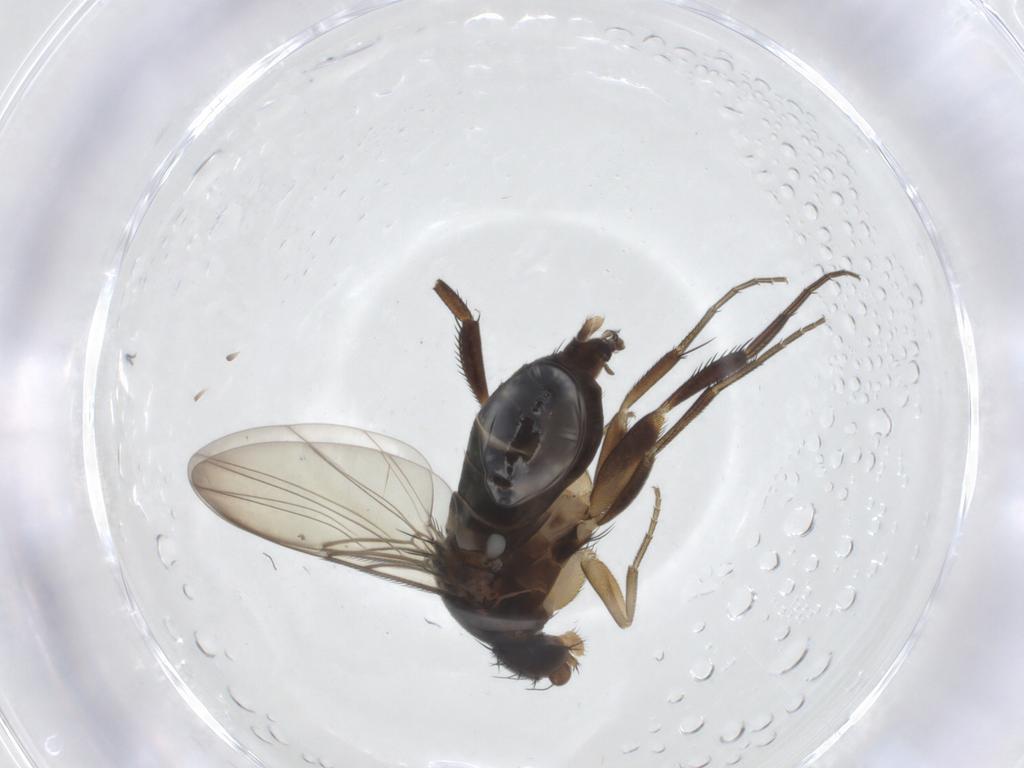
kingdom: Animalia
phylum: Arthropoda
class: Insecta
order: Diptera
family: Phoridae
